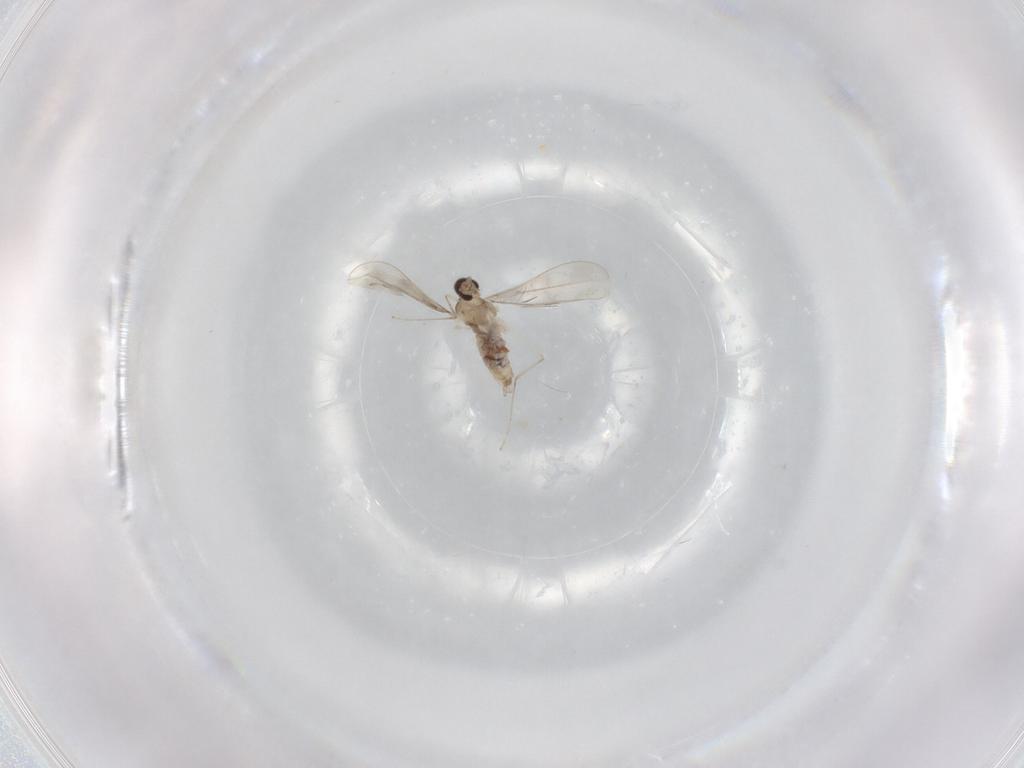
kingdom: Animalia
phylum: Arthropoda
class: Insecta
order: Diptera
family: Cecidomyiidae
